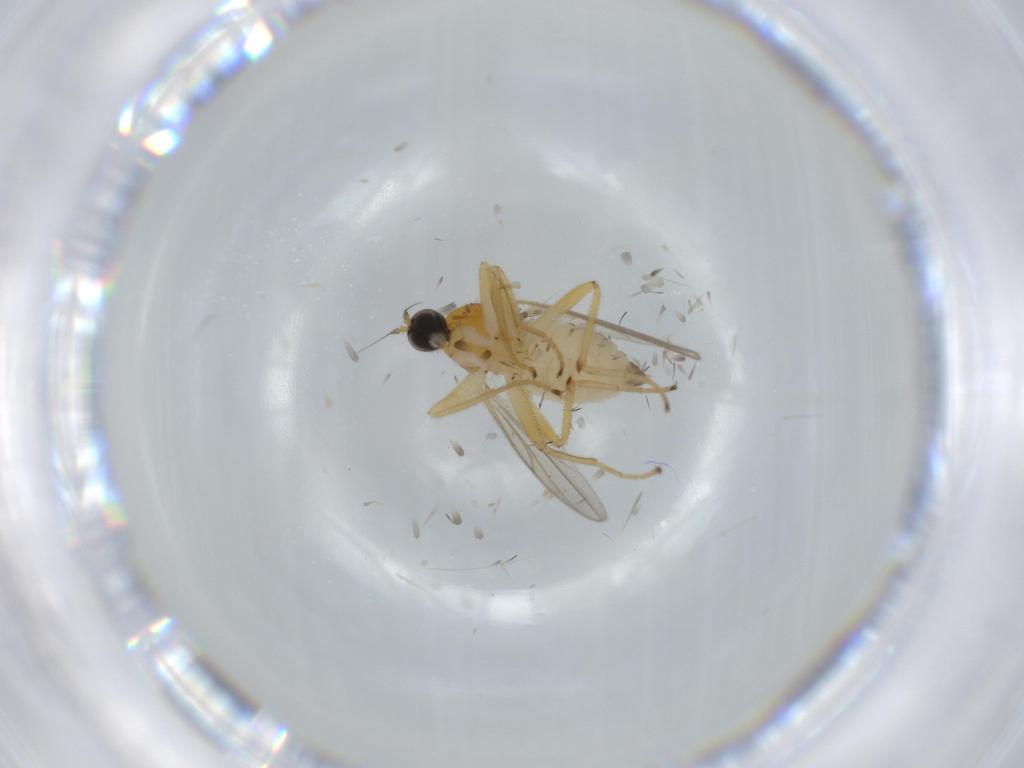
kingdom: Animalia
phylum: Arthropoda
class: Insecta
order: Diptera
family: Hybotidae
